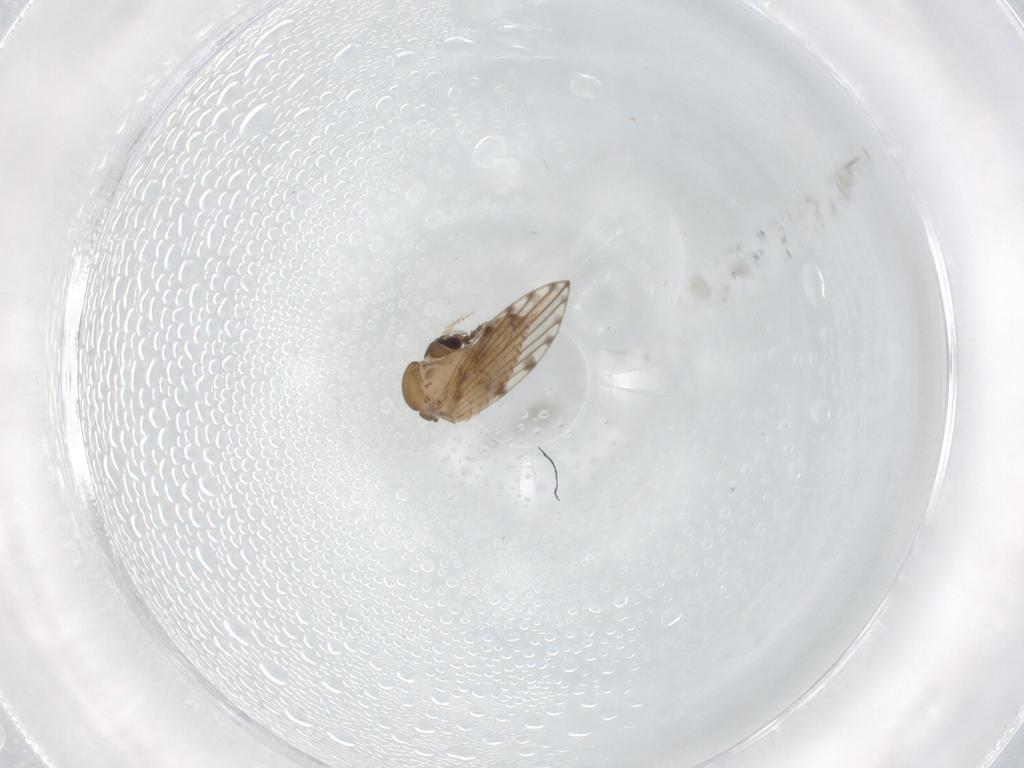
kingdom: Animalia
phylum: Arthropoda
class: Insecta
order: Diptera
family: Psychodidae
